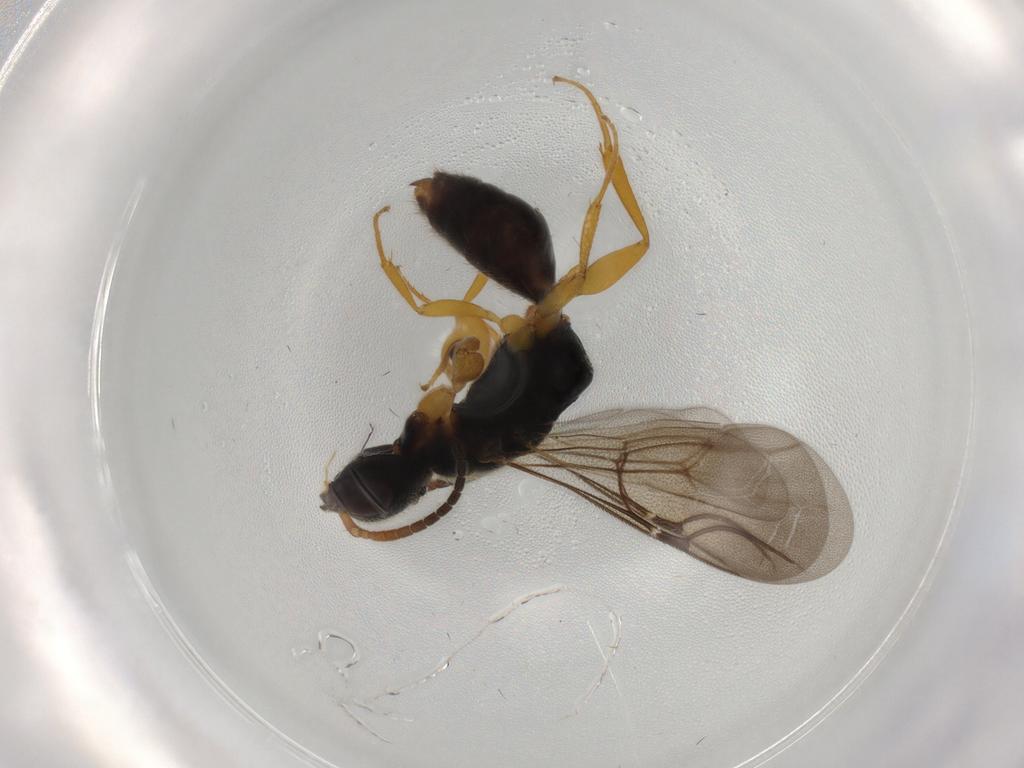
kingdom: Animalia
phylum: Arthropoda
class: Insecta
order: Hymenoptera
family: Bethylidae
